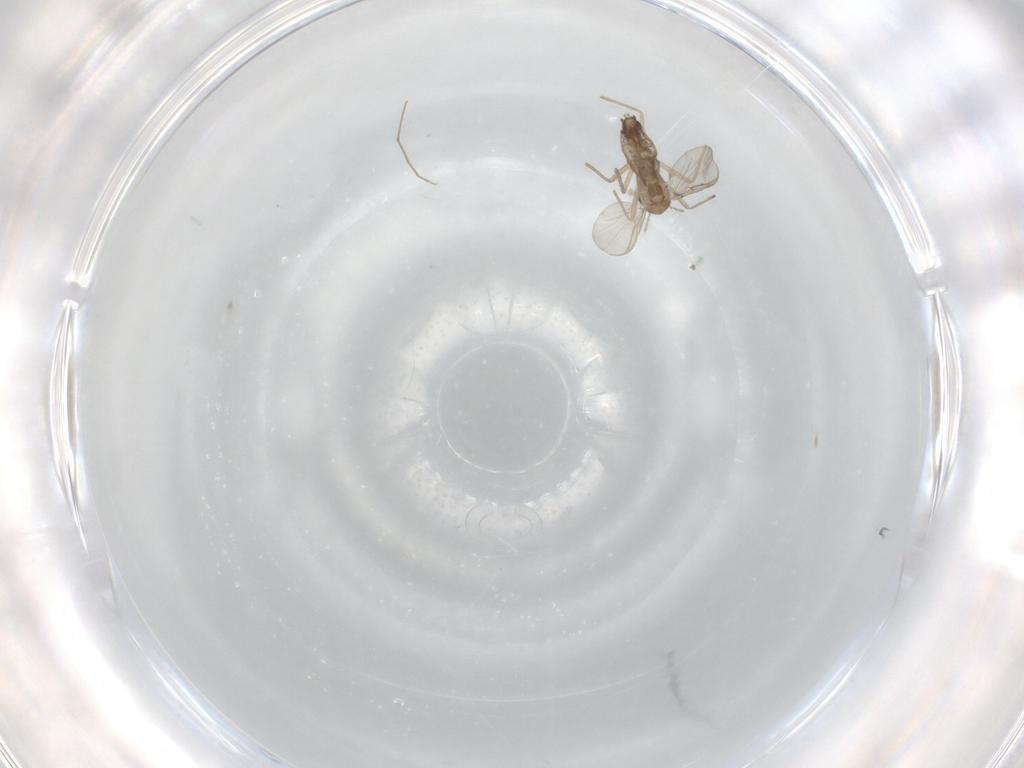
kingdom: Animalia
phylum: Arthropoda
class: Insecta
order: Diptera
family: Chironomidae
